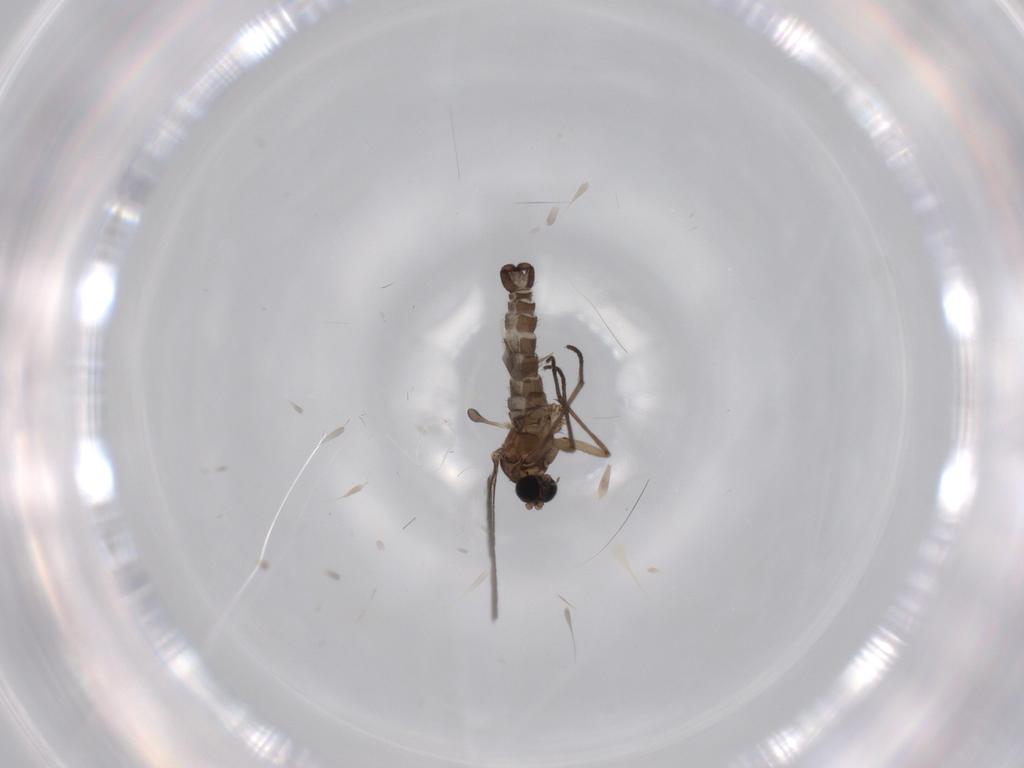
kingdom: Animalia
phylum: Arthropoda
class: Insecta
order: Diptera
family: Sciaridae
